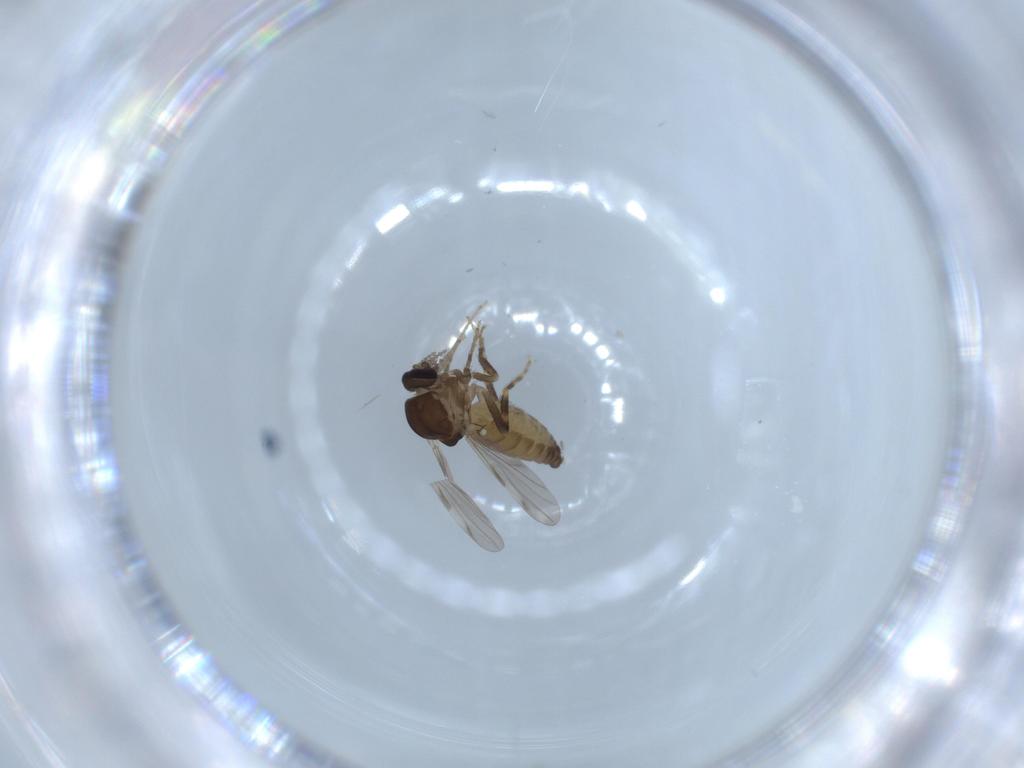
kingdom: Animalia
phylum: Arthropoda
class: Insecta
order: Diptera
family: Ceratopogonidae
